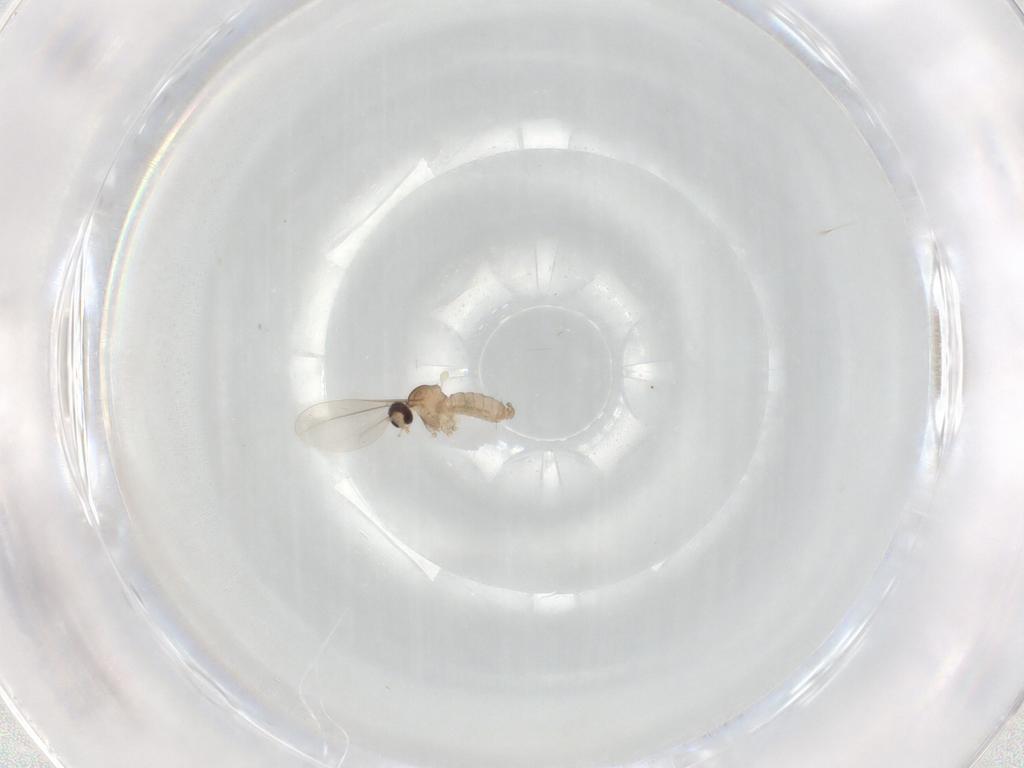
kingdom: Animalia
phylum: Arthropoda
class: Insecta
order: Diptera
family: Cecidomyiidae
